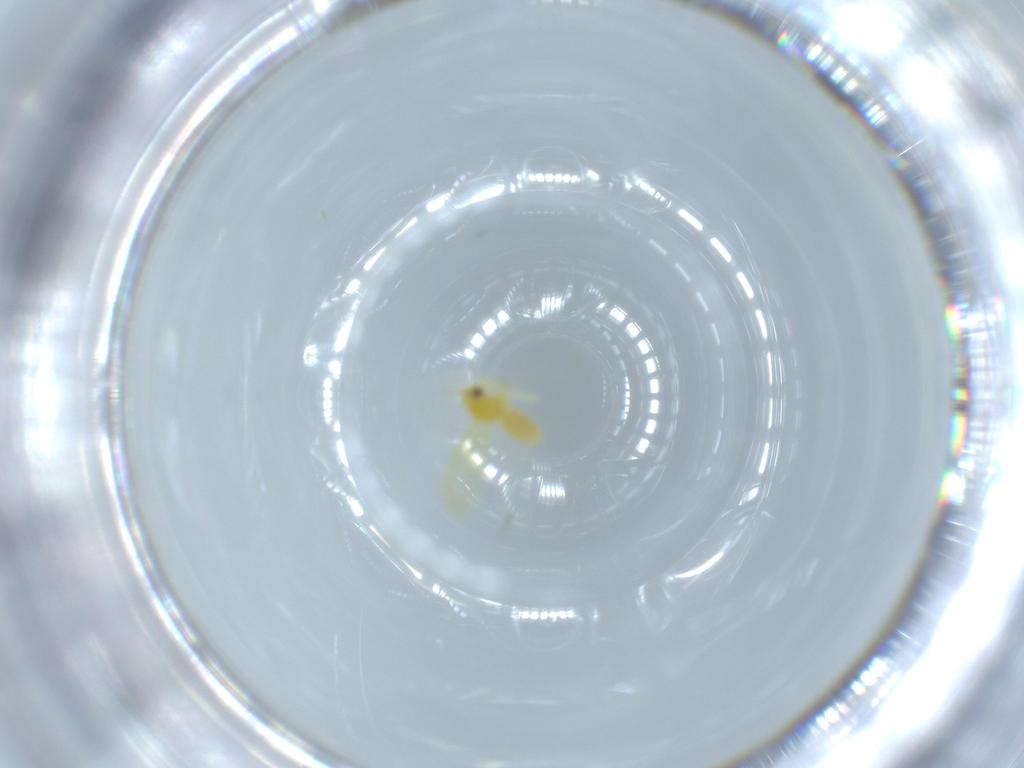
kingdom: Animalia
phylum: Arthropoda
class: Insecta
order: Hemiptera
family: Aleyrodidae
